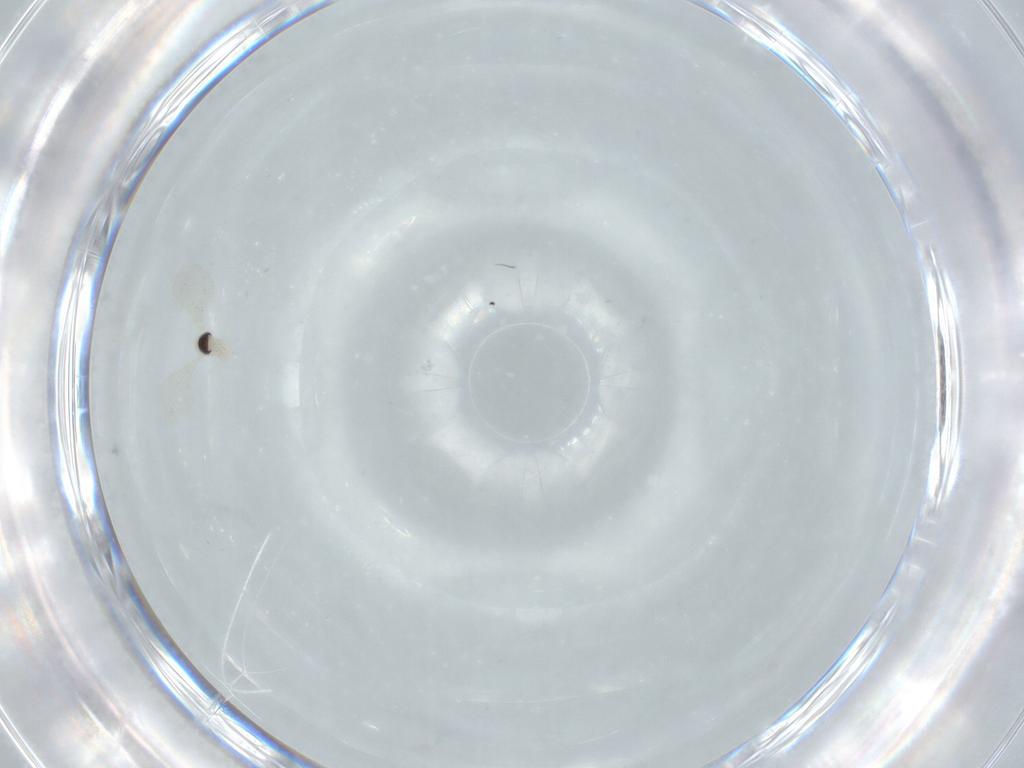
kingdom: Animalia
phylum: Arthropoda
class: Insecta
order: Diptera
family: Cecidomyiidae
